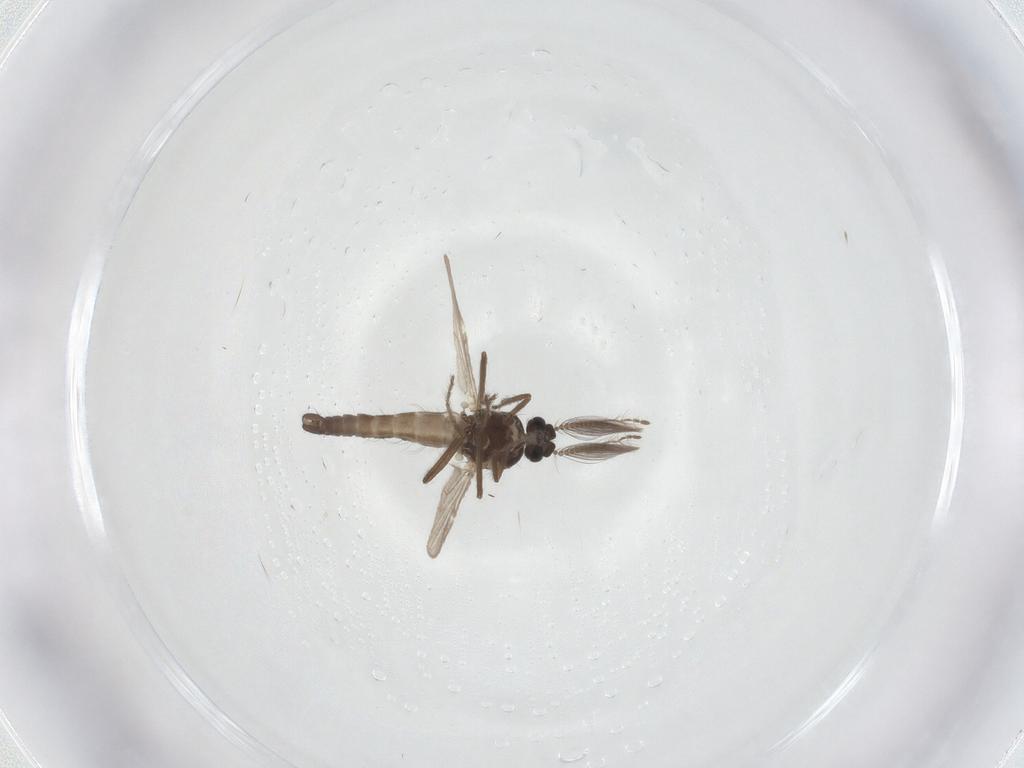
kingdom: Animalia
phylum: Arthropoda
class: Insecta
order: Diptera
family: Ceratopogonidae
